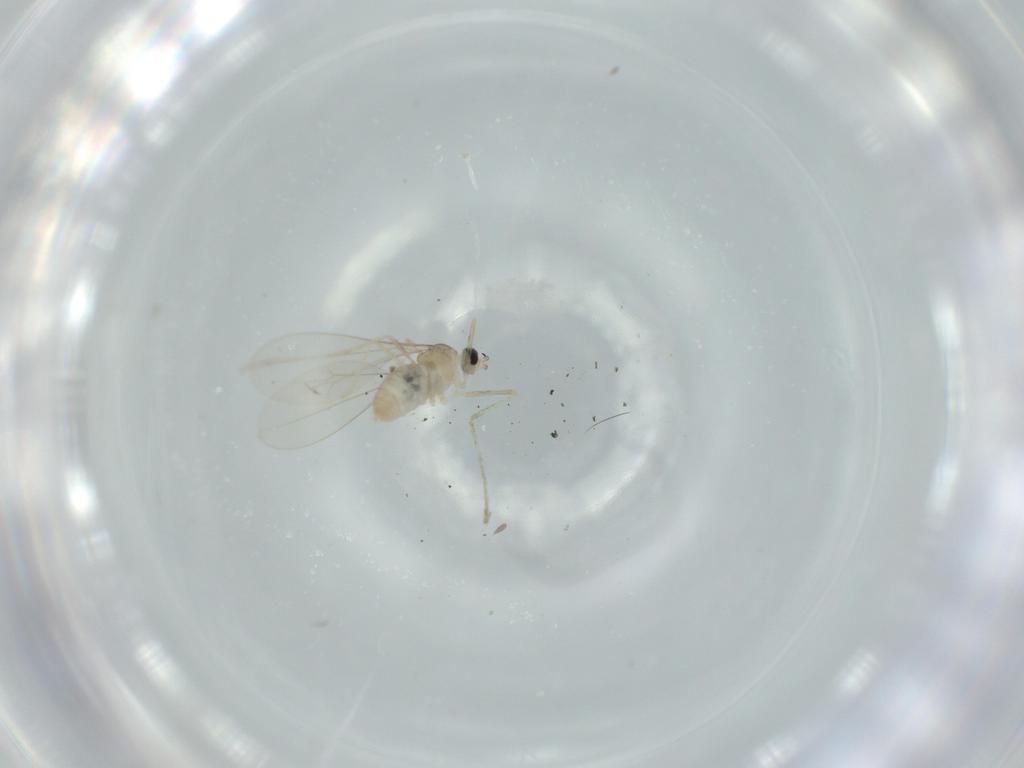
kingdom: Animalia
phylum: Arthropoda
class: Insecta
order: Diptera
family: Cecidomyiidae
